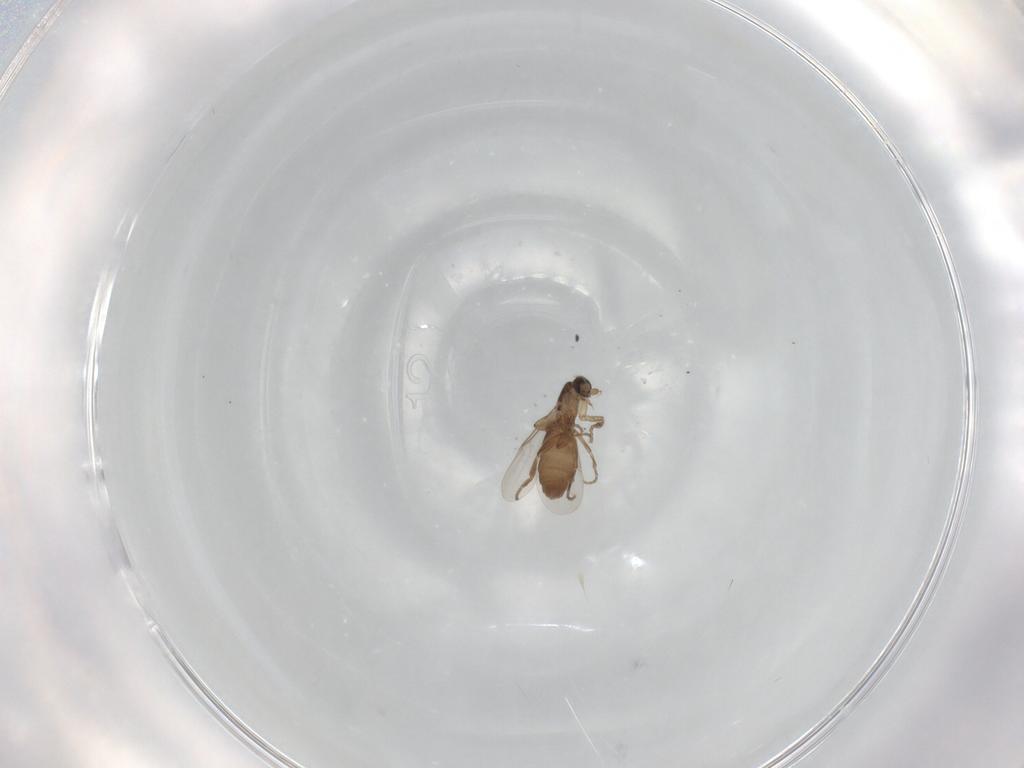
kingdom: Animalia
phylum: Arthropoda
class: Insecta
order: Diptera
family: Phoridae
